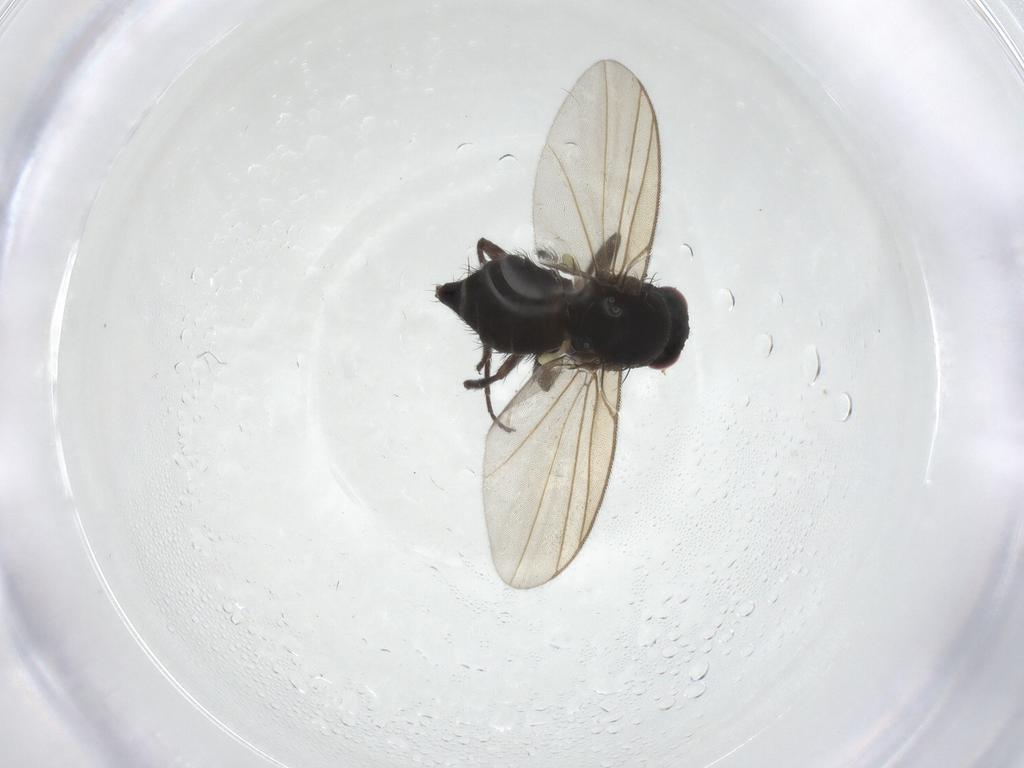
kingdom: Animalia
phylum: Arthropoda
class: Insecta
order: Diptera
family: Agromyzidae
